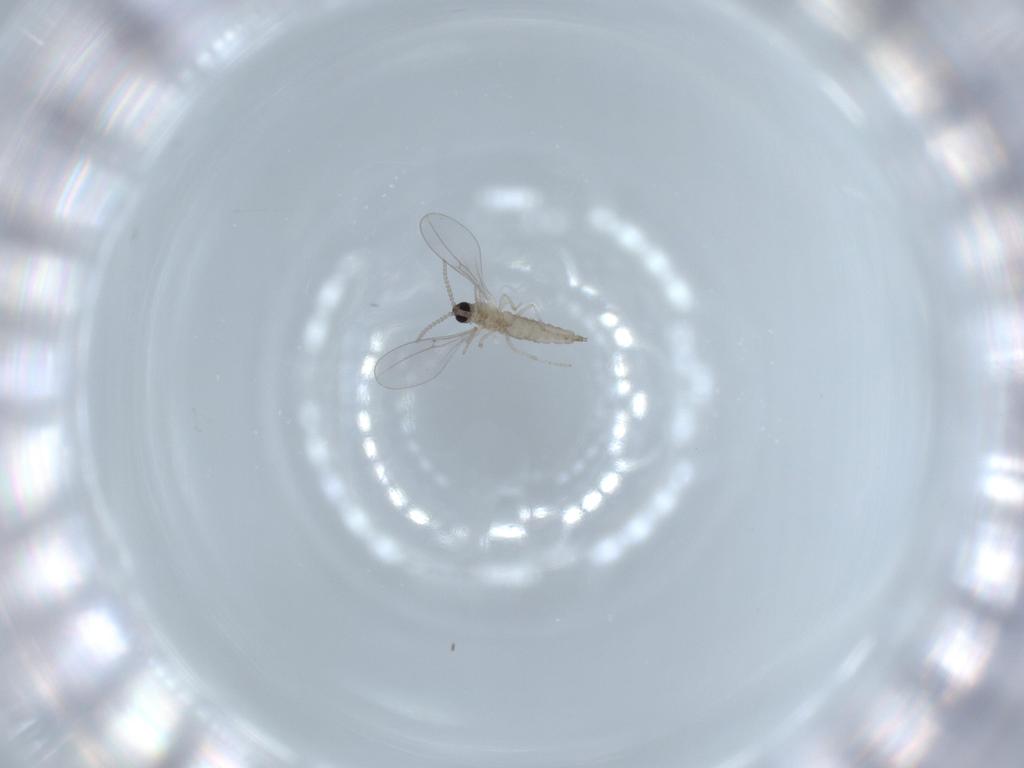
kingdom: Animalia
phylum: Arthropoda
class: Insecta
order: Diptera
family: Cecidomyiidae
